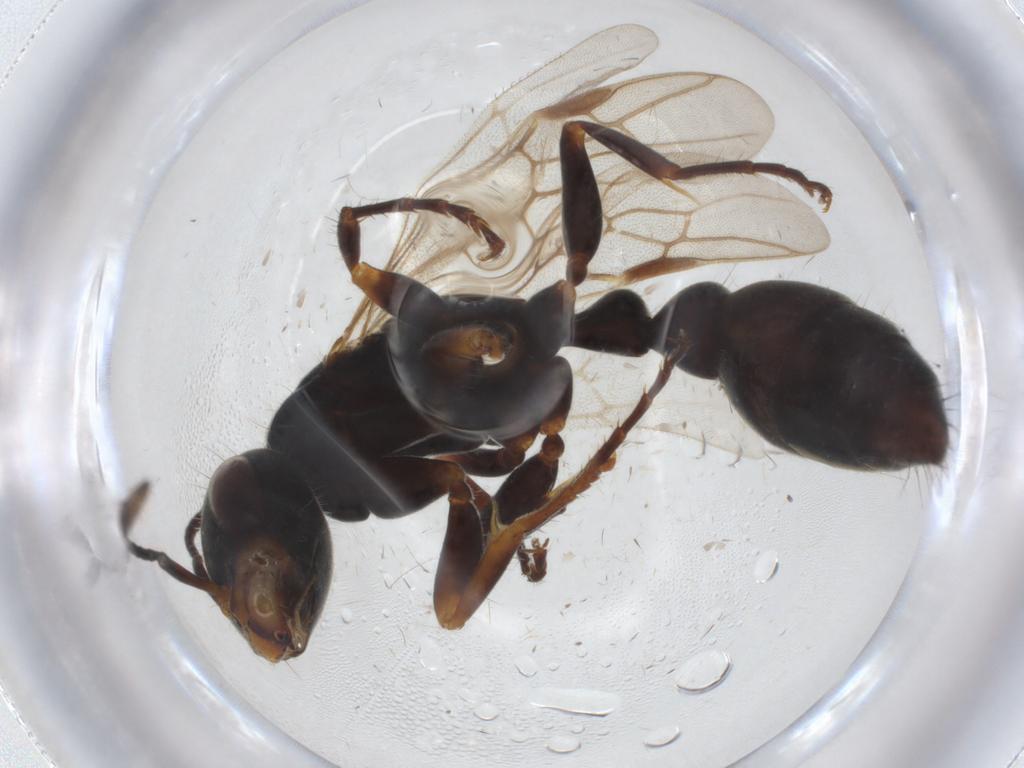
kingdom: Animalia
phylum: Arthropoda
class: Insecta
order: Hymenoptera
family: Formicidae
